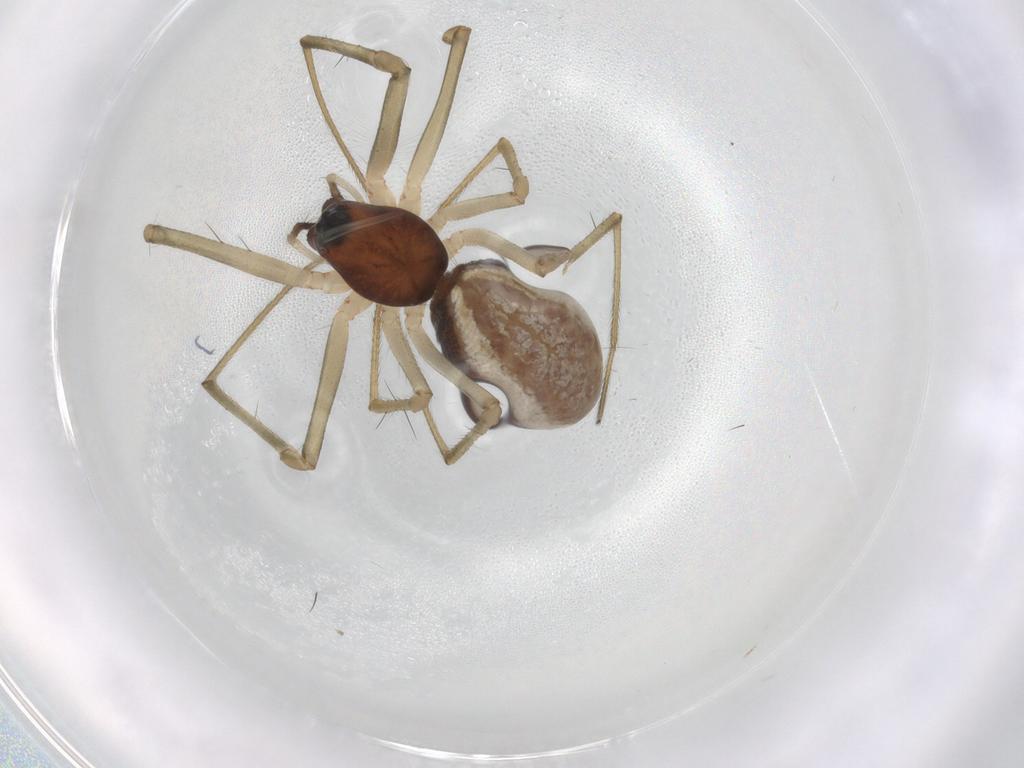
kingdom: Animalia
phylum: Arthropoda
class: Arachnida
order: Araneae
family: Linyphiidae
